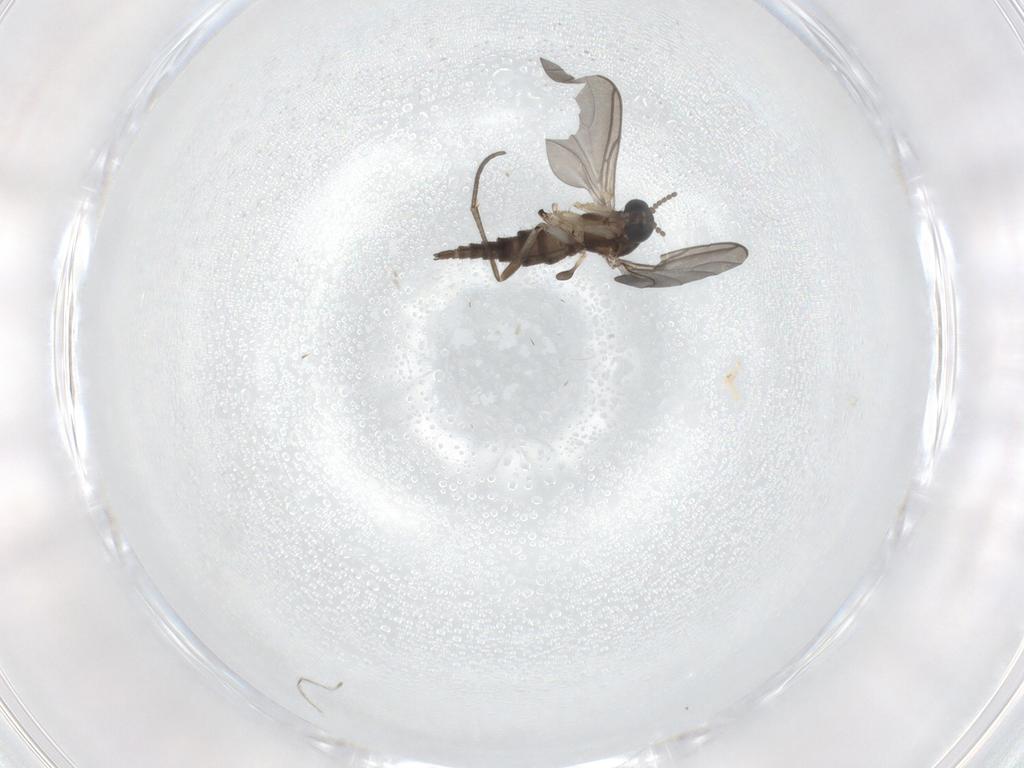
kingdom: Animalia
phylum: Arthropoda
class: Insecta
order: Diptera
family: Sciaridae
